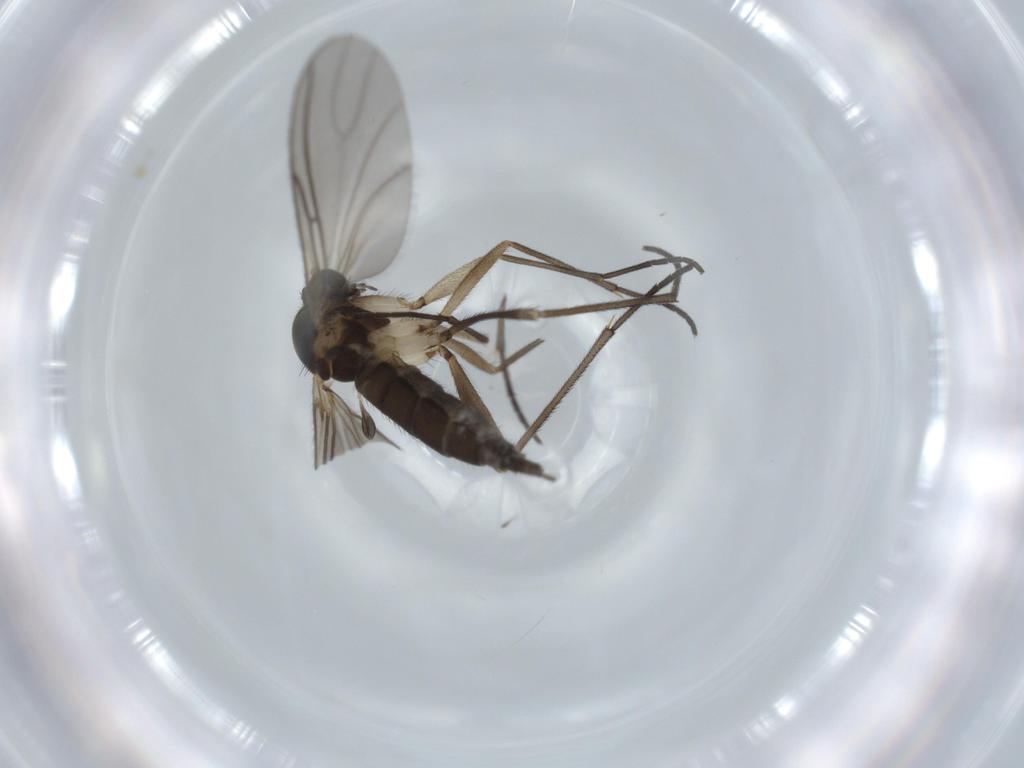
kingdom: Animalia
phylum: Arthropoda
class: Insecta
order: Diptera
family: Sciaridae
